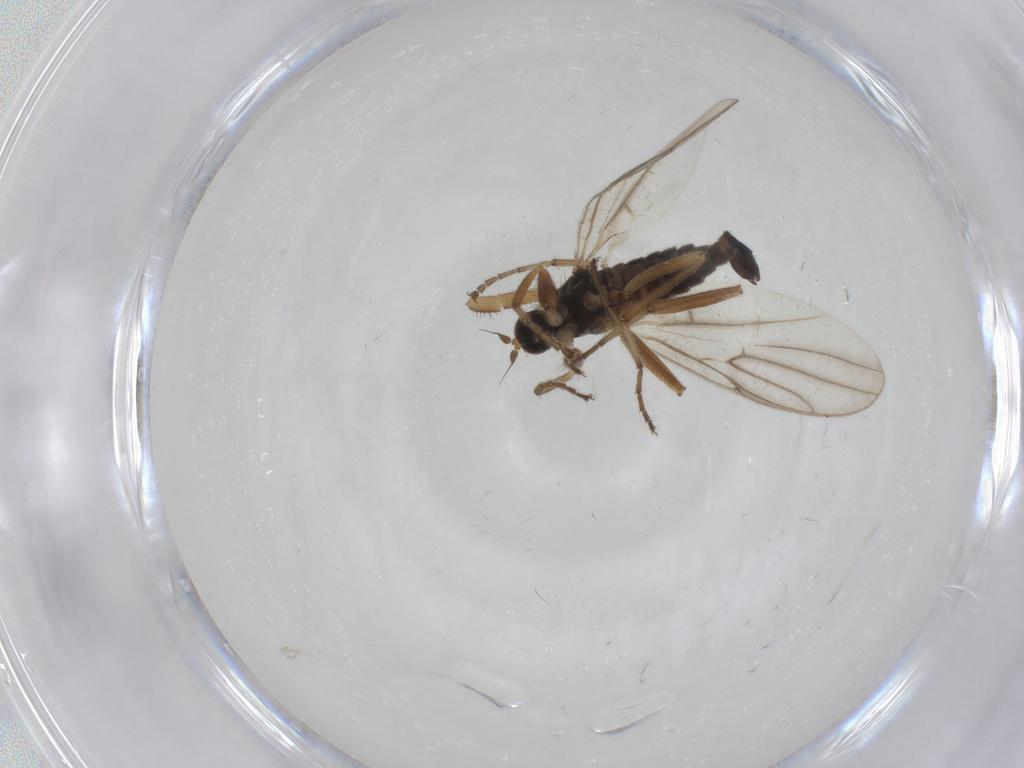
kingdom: Animalia
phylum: Arthropoda
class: Insecta
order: Diptera
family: Hybotidae
